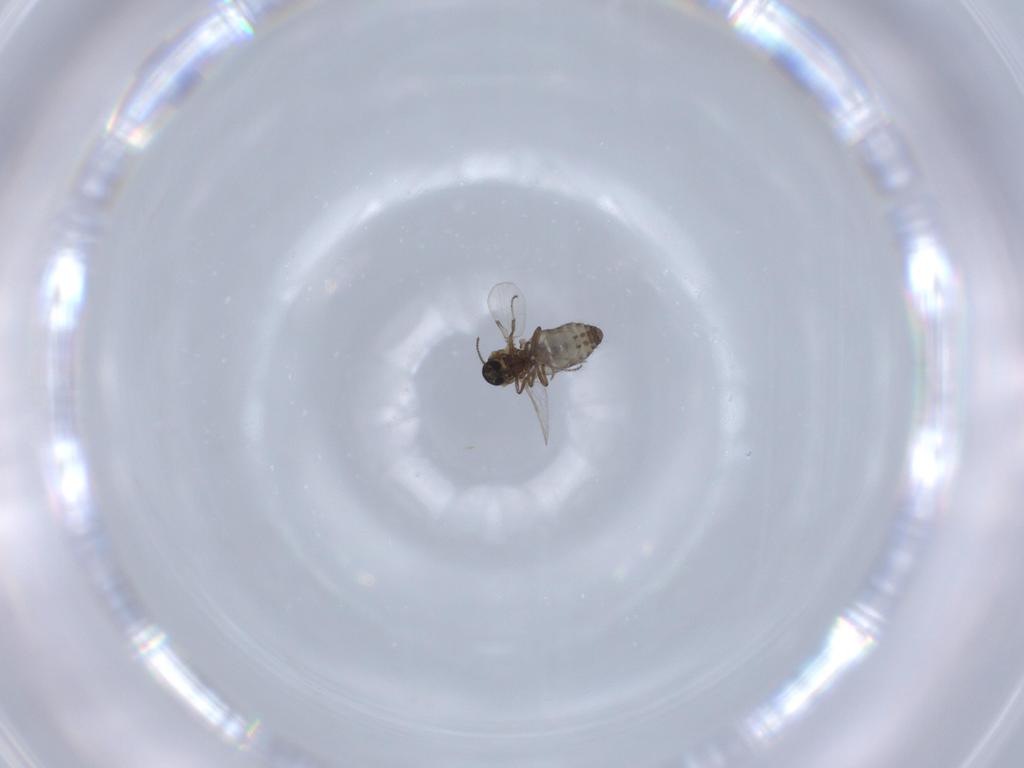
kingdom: Animalia
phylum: Arthropoda
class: Insecta
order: Diptera
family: Ceratopogonidae
